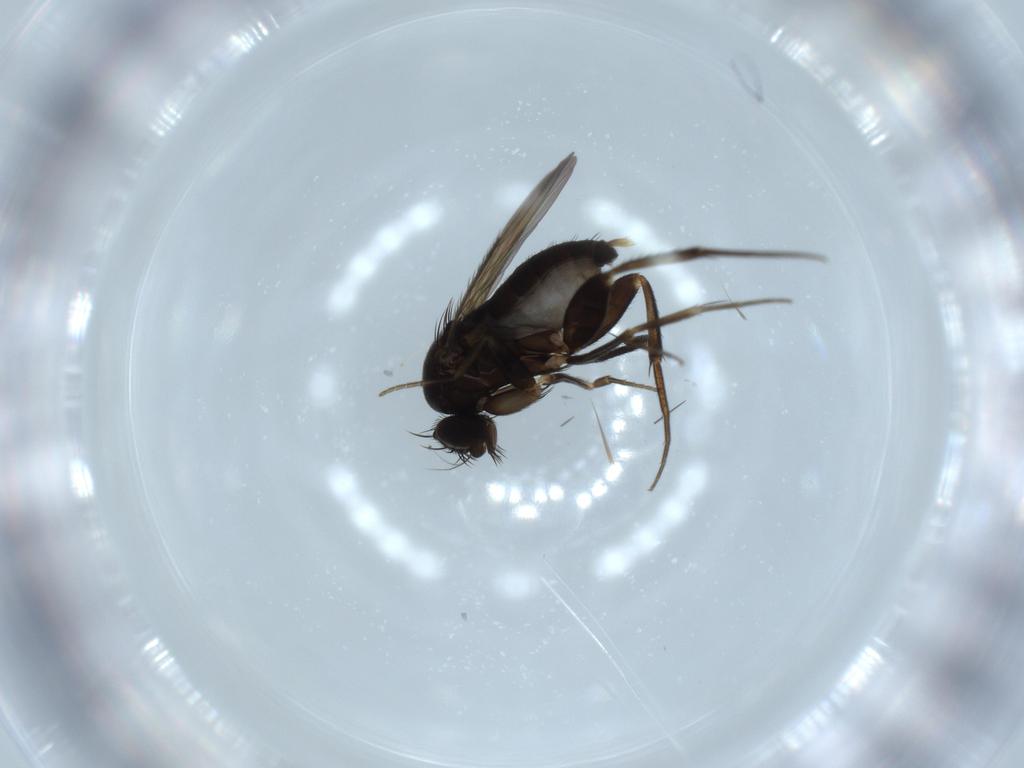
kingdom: Animalia
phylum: Arthropoda
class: Insecta
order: Diptera
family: Phoridae
